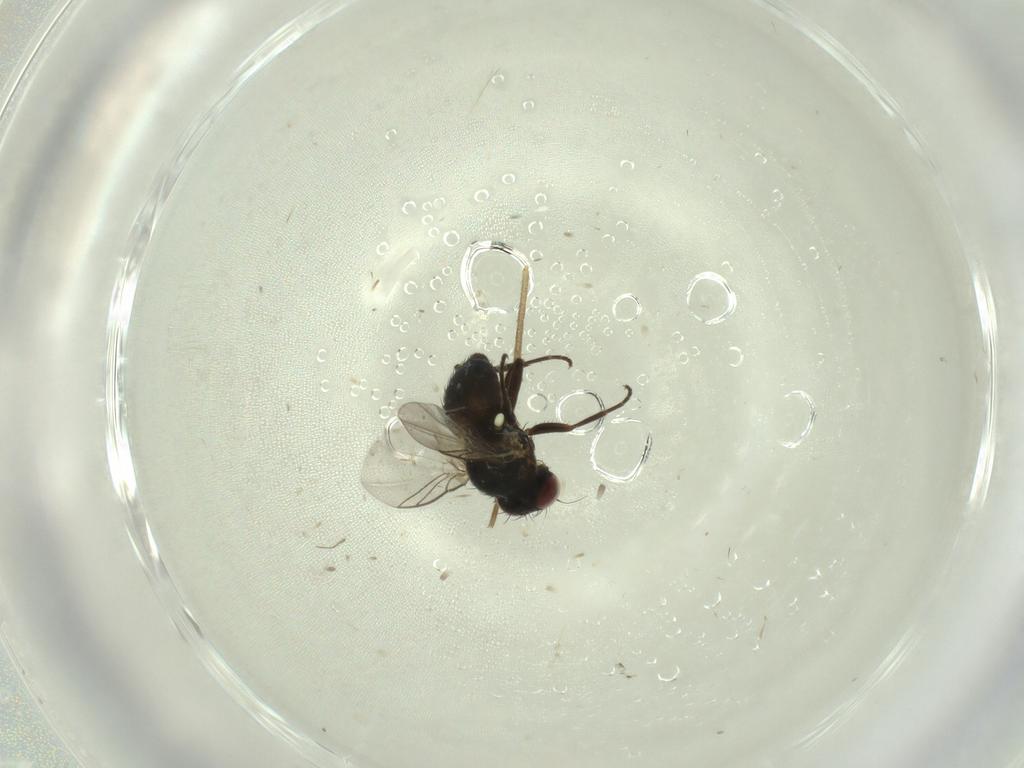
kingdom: Animalia
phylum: Arthropoda
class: Insecta
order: Diptera
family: Mycetophilidae
